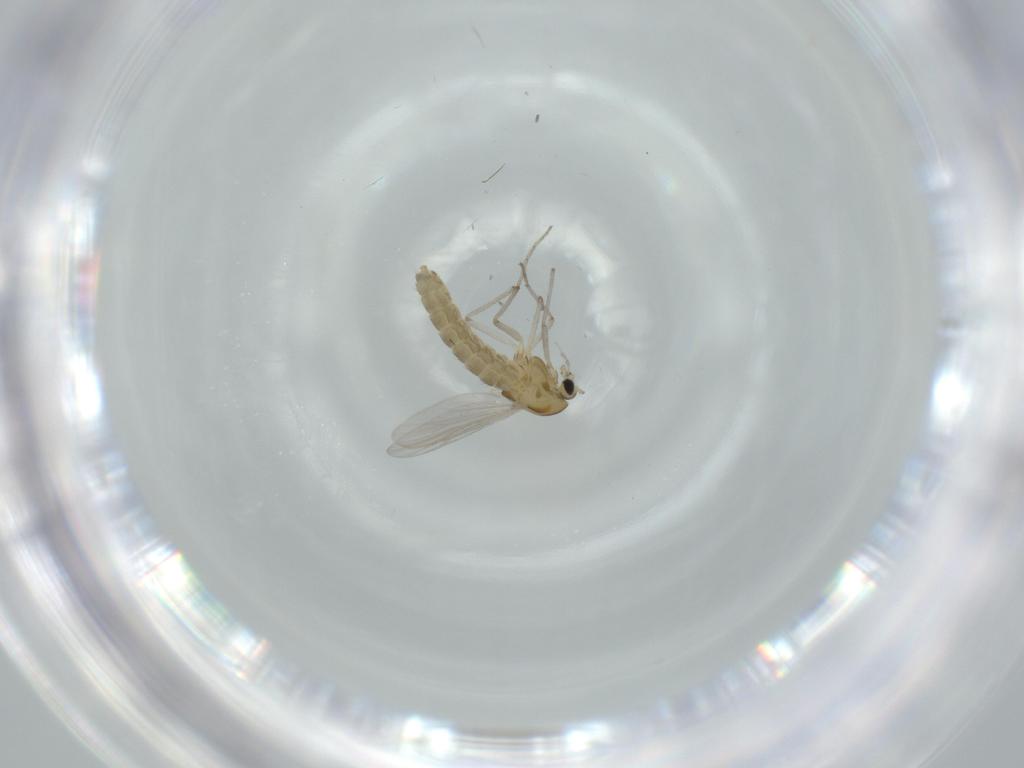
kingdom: Animalia
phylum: Arthropoda
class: Insecta
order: Diptera
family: Chironomidae
